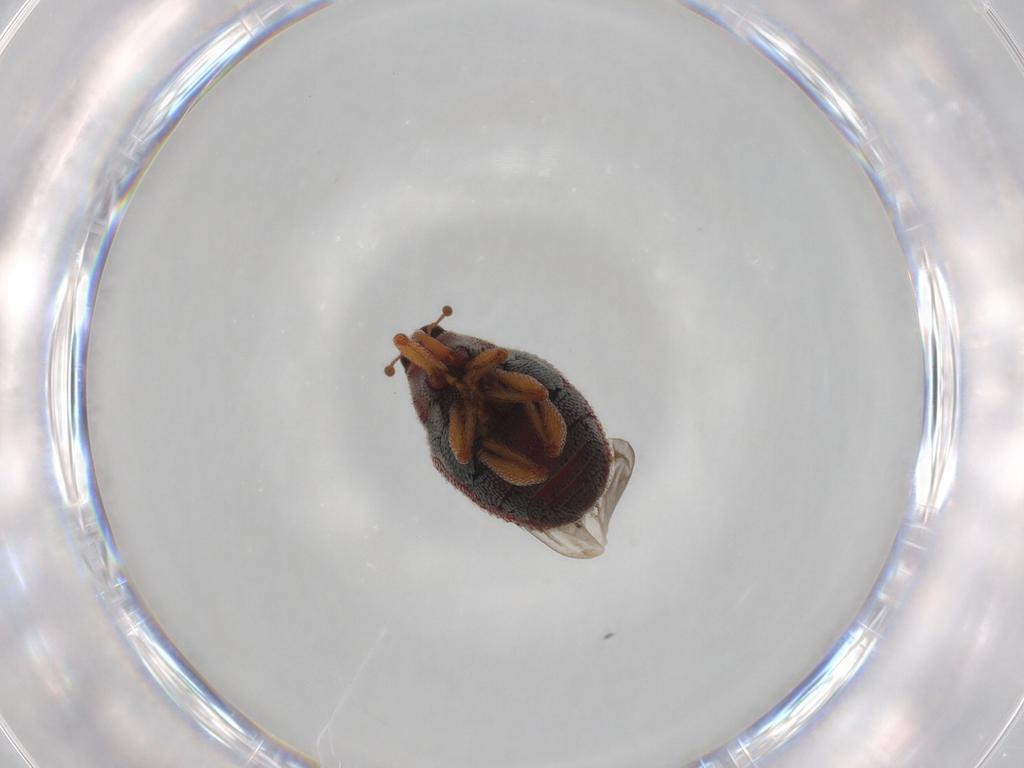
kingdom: Animalia
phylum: Arthropoda
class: Insecta
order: Coleoptera
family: Curculionidae
